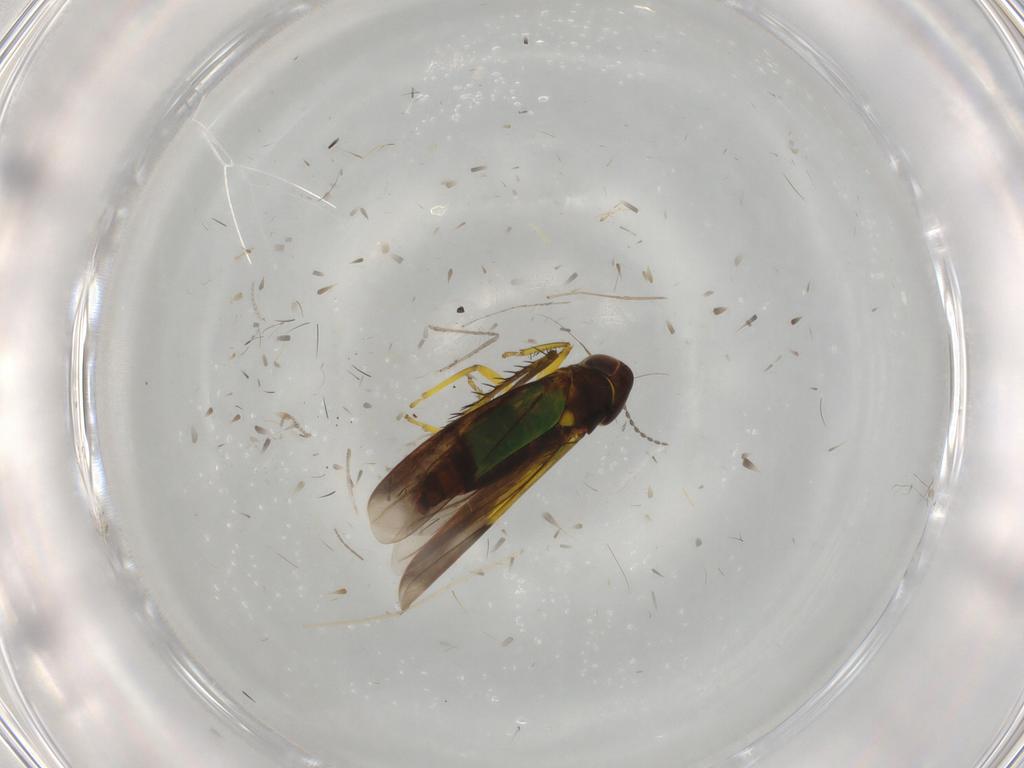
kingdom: Animalia
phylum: Arthropoda
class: Insecta
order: Hemiptera
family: Cicadellidae
